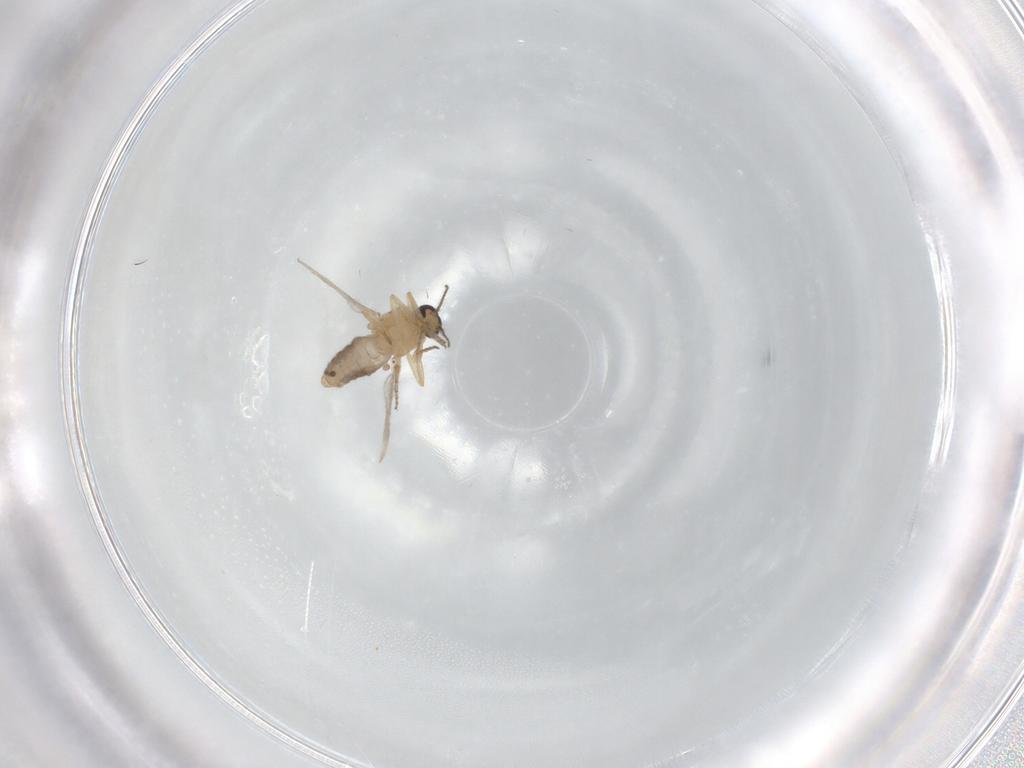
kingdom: Animalia
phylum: Arthropoda
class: Insecta
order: Diptera
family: Ceratopogonidae
